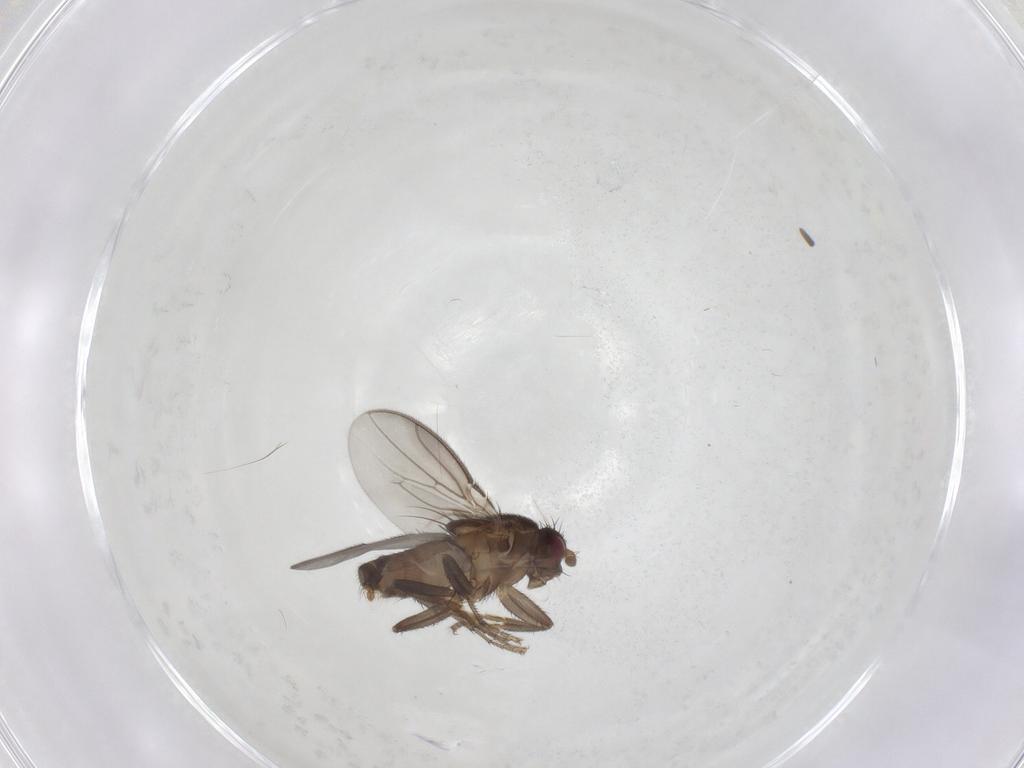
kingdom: Animalia
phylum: Arthropoda
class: Insecta
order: Diptera
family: Sphaeroceridae
